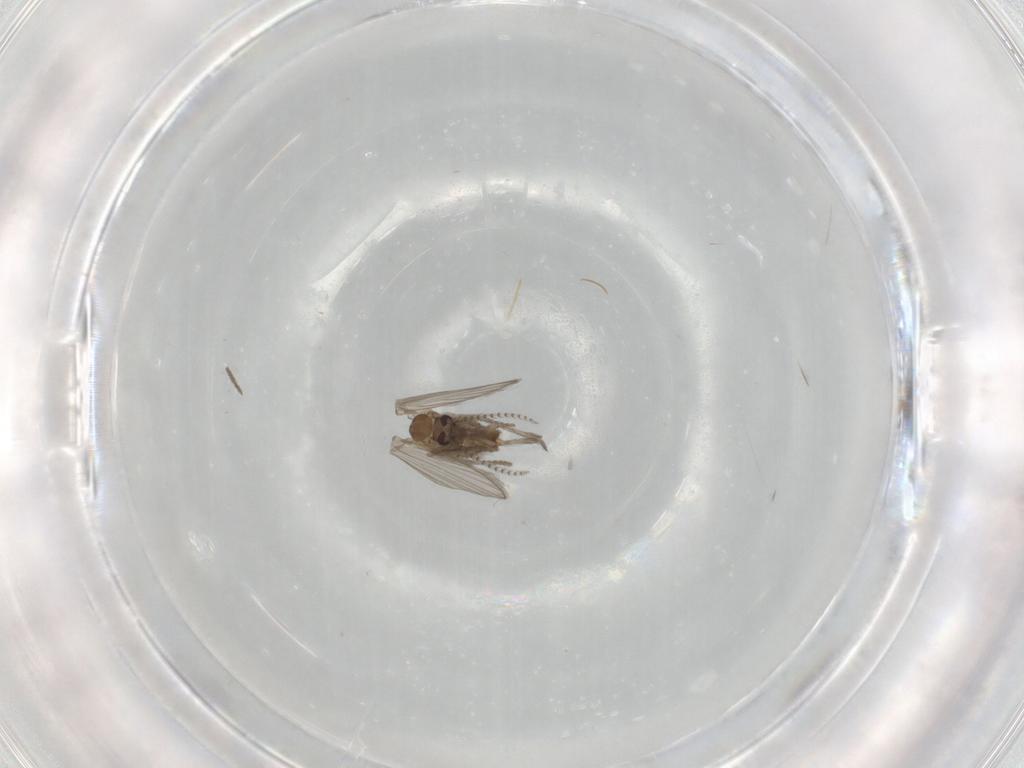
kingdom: Animalia
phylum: Arthropoda
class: Insecta
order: Diptera
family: Psychodidae
